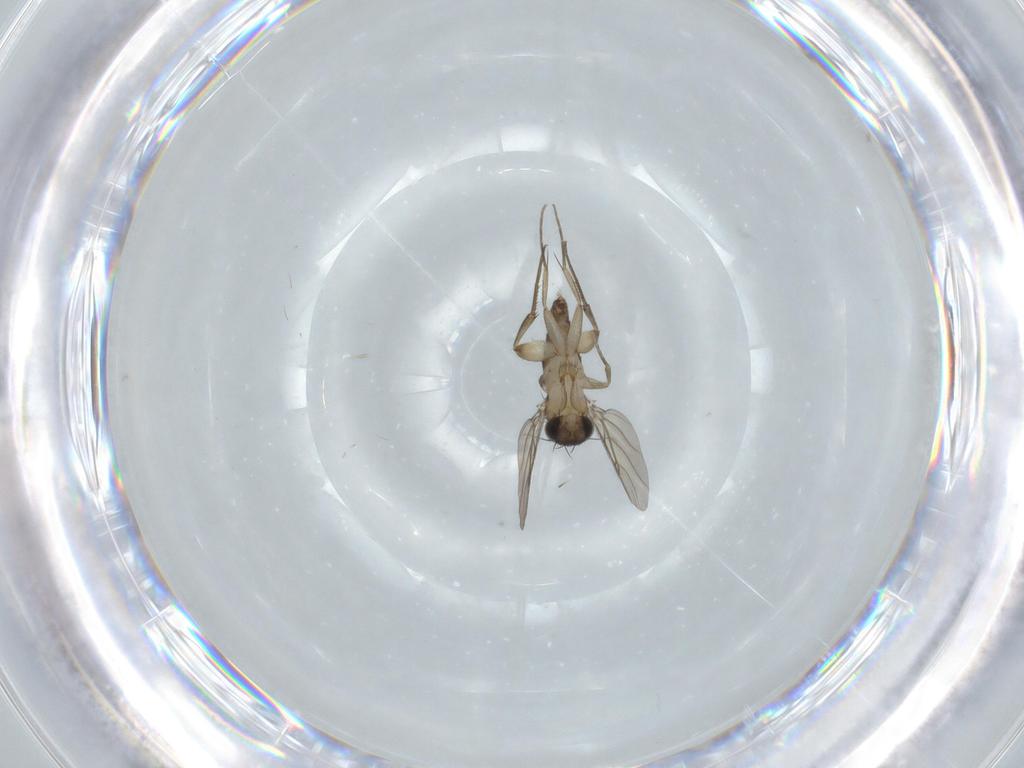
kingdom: Animalia
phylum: Arthropoda
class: Insecta
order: Diptera
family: Phoridae
